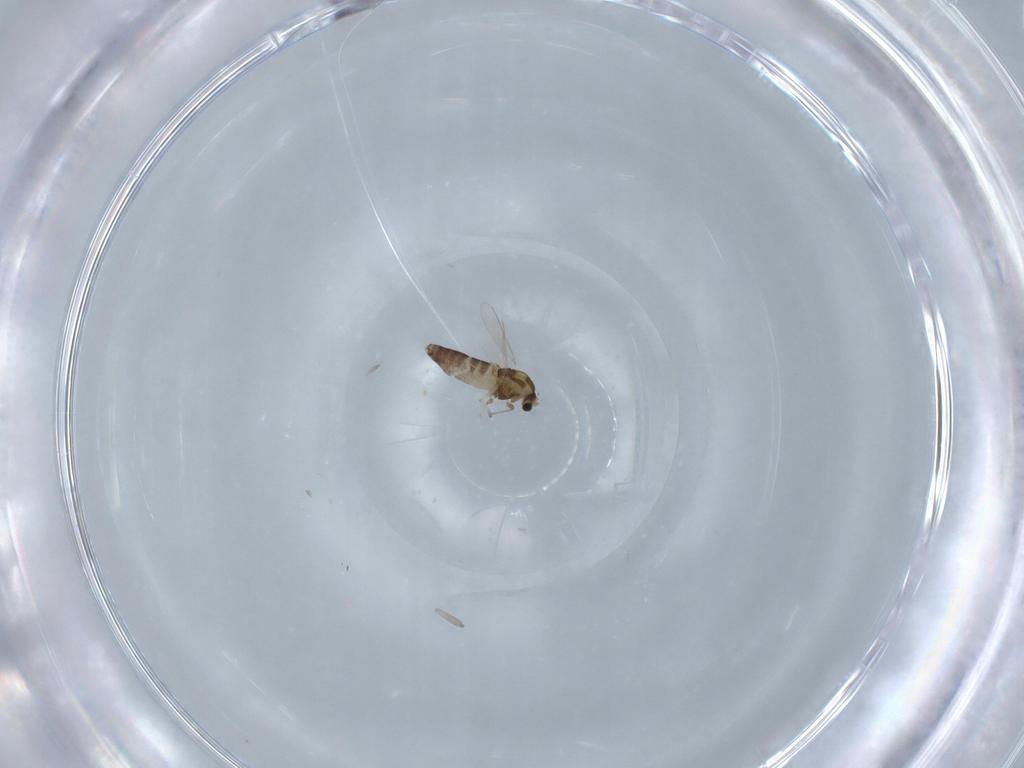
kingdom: Animalia
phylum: Arthropoda
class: Insecta
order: Diptera
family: Chironomidae
